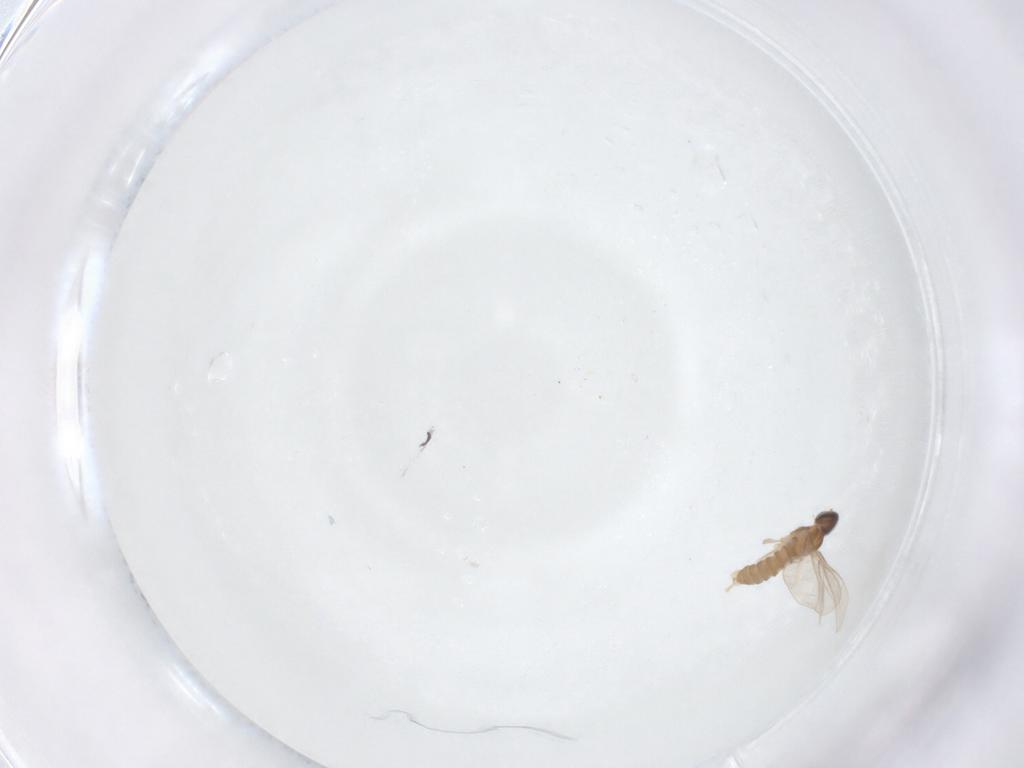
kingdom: Animalia
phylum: Arthropoda
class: Insecta
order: Diptera
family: Cecidomyiidae
